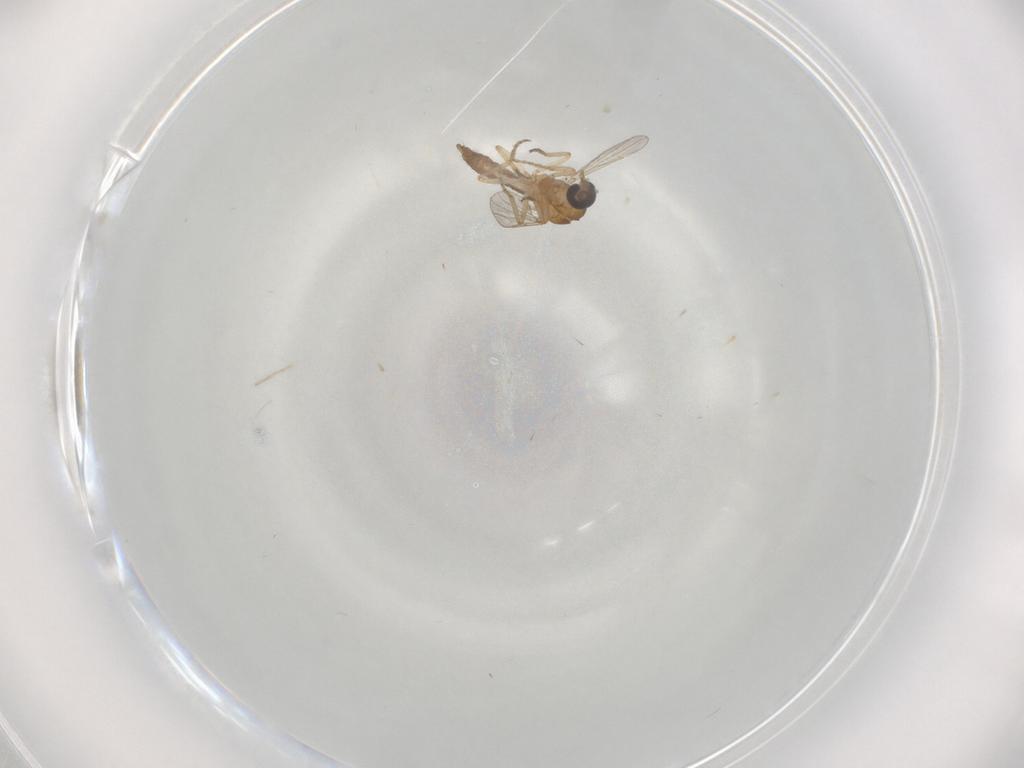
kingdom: Animalia
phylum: Arthropoda
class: Insecta
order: Diptera
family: Ceratopogonidae
